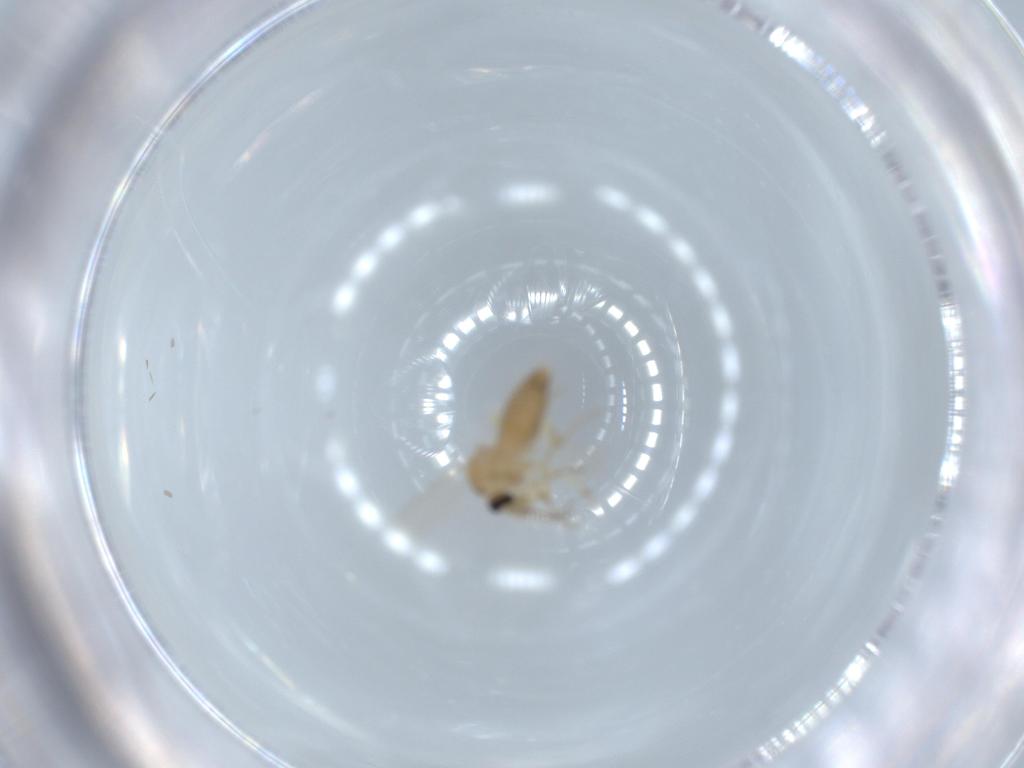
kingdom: Animalia
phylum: Arthropoda
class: Insecta
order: Diptera
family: Ceratopogonidae
